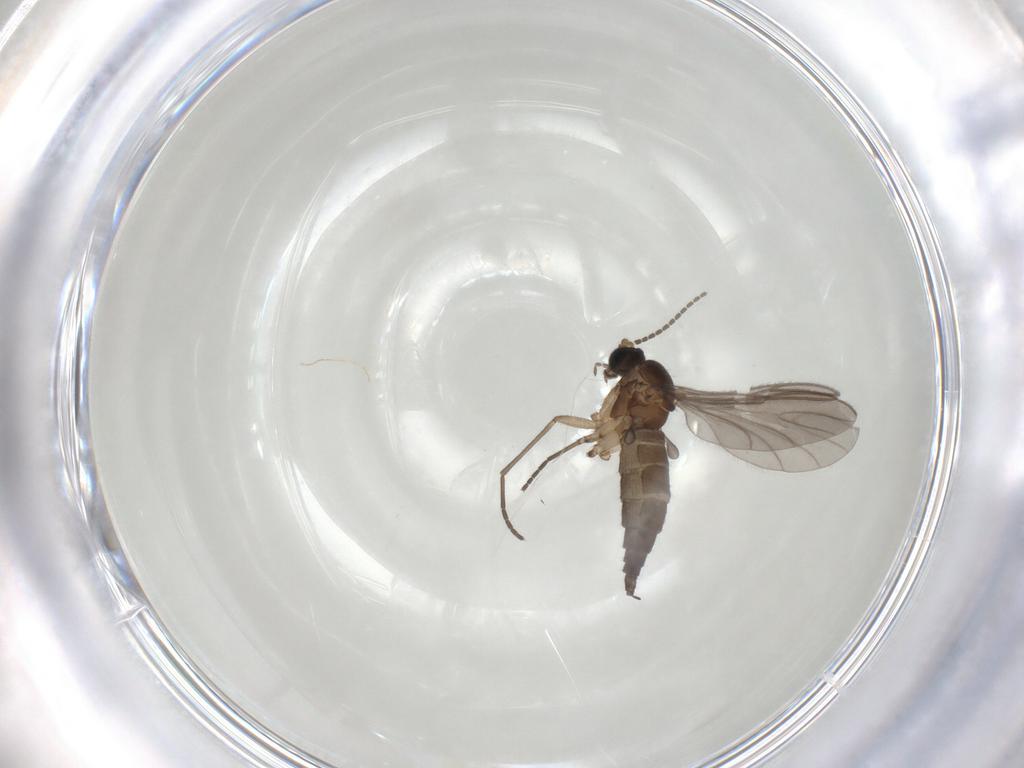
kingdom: Animalia
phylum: Arthropoda
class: Insecta
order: Diptera
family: Sciaridae
